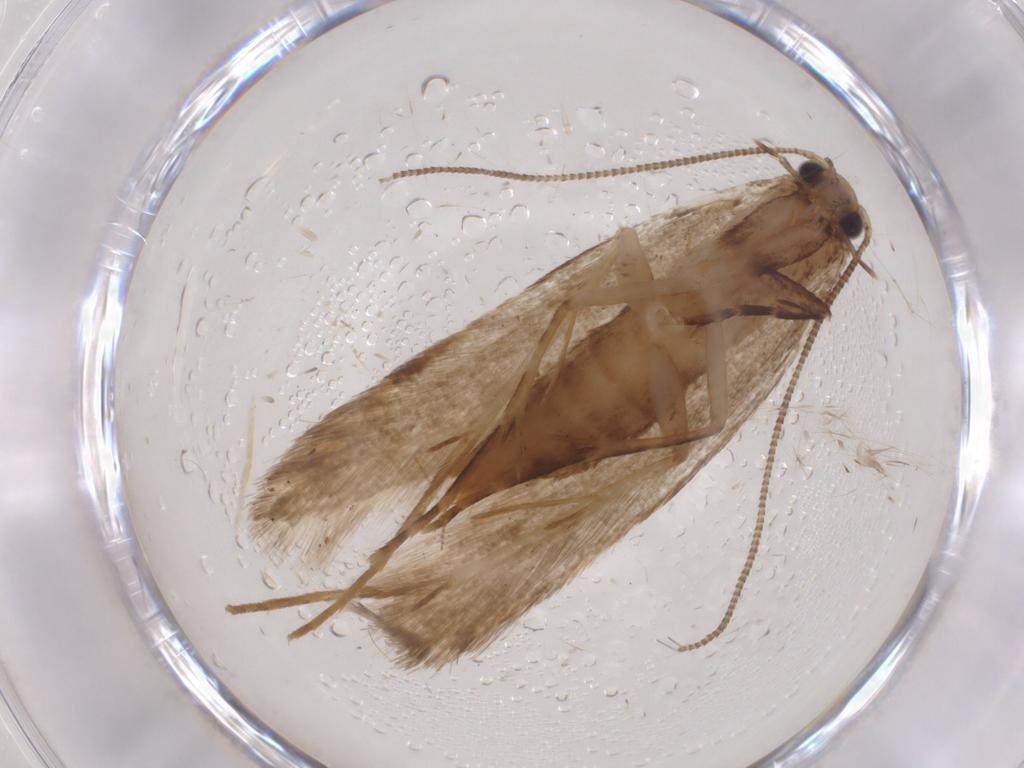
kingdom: Animalia
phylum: Arthropoda
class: Insecta
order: Lepidoptera
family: Tineidae
